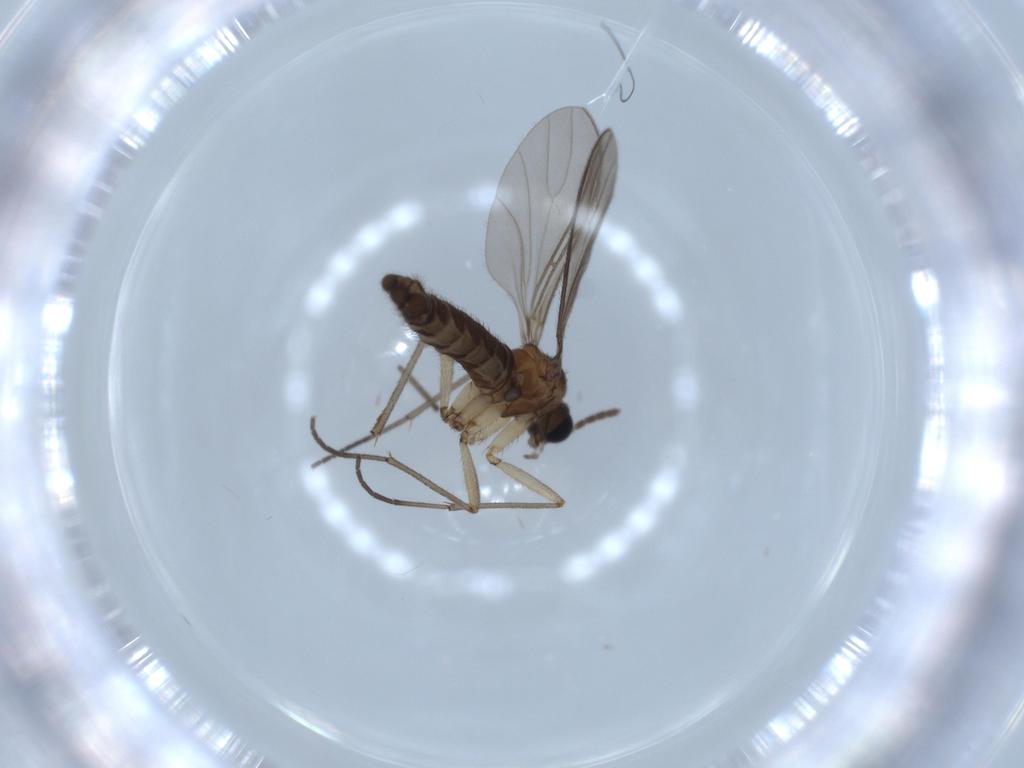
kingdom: Animalia
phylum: Arthropoda
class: Insecta
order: Diptera
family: Sciaridae
